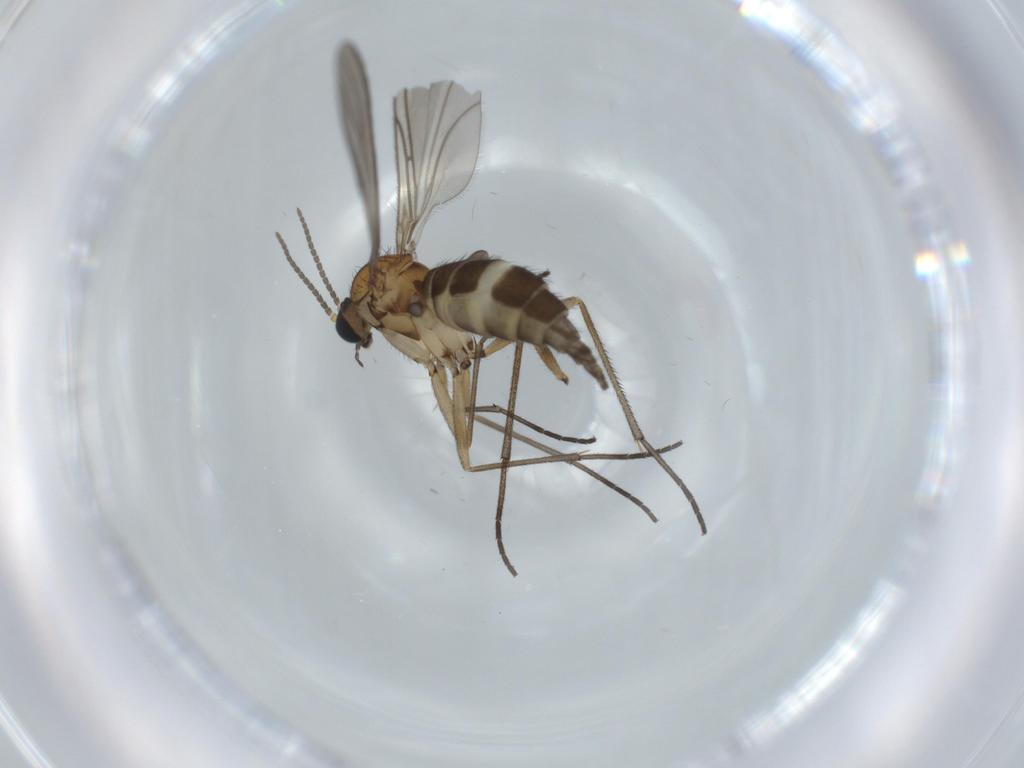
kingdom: Animalia
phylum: Arthropoda
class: Insecta
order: Diptera
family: Sciaridae
